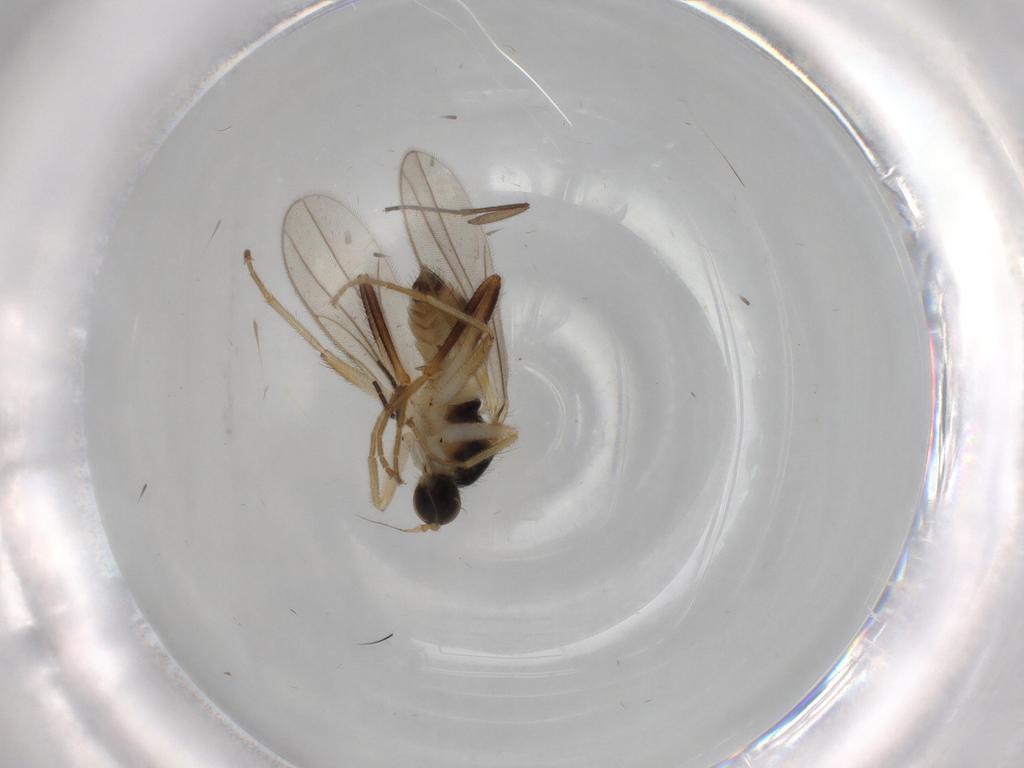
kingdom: Animalia
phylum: Arthropoda
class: Insecta
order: Diptera
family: Hybotidae
